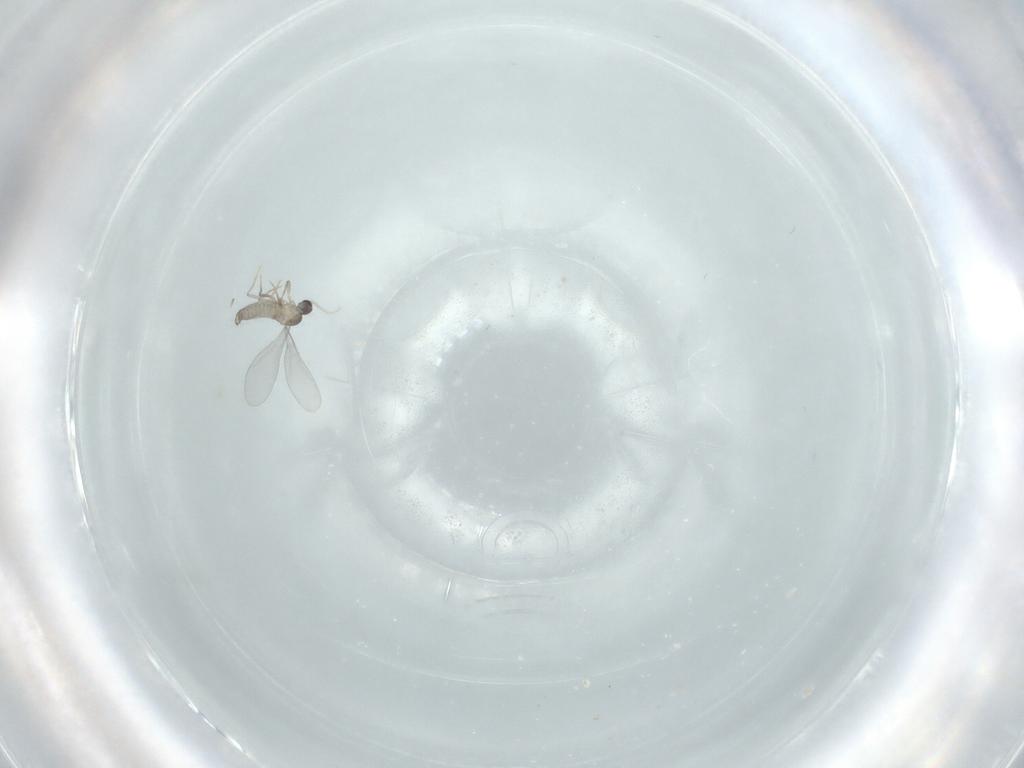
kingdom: Animalia
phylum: Arthropoda
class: Insecta
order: Diptera
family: Cecidomyiidae
